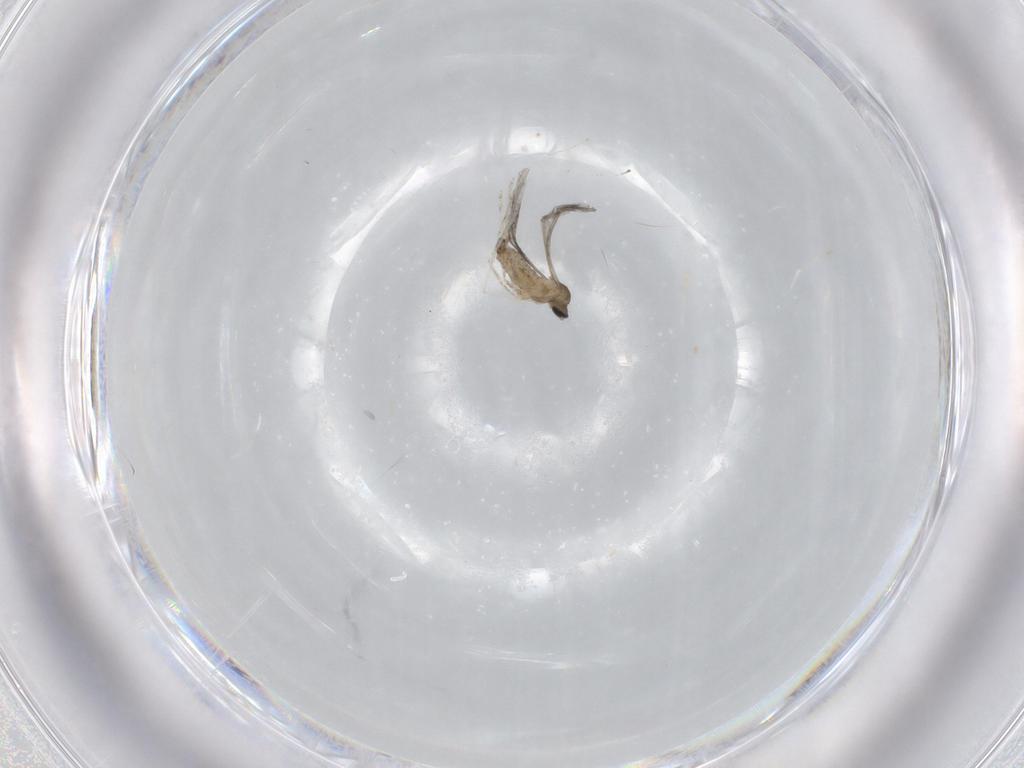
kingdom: Animalia
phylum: Arthropoda
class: Insecta
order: Diptera
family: Cecidomyiidae
